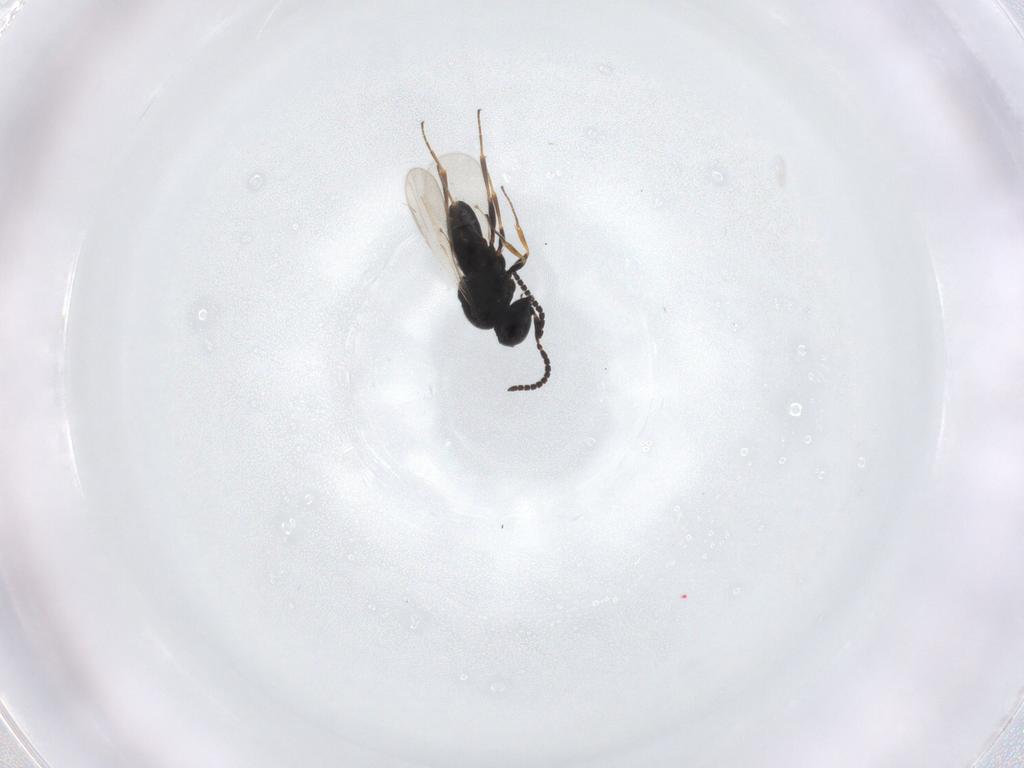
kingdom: Animalia
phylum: Arthropoda
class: Insecta
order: Hymenoptera
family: Scelionidae
